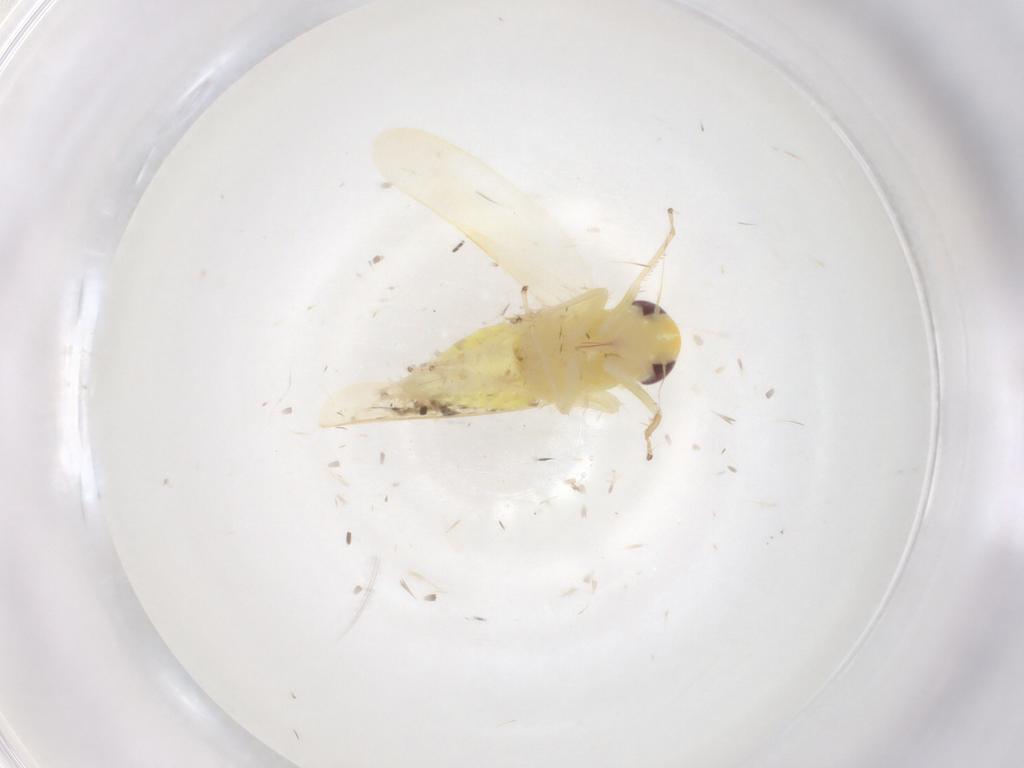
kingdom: Animalia
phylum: Arthropoda
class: Insecta
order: Hemiptera
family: Cicadellidae
